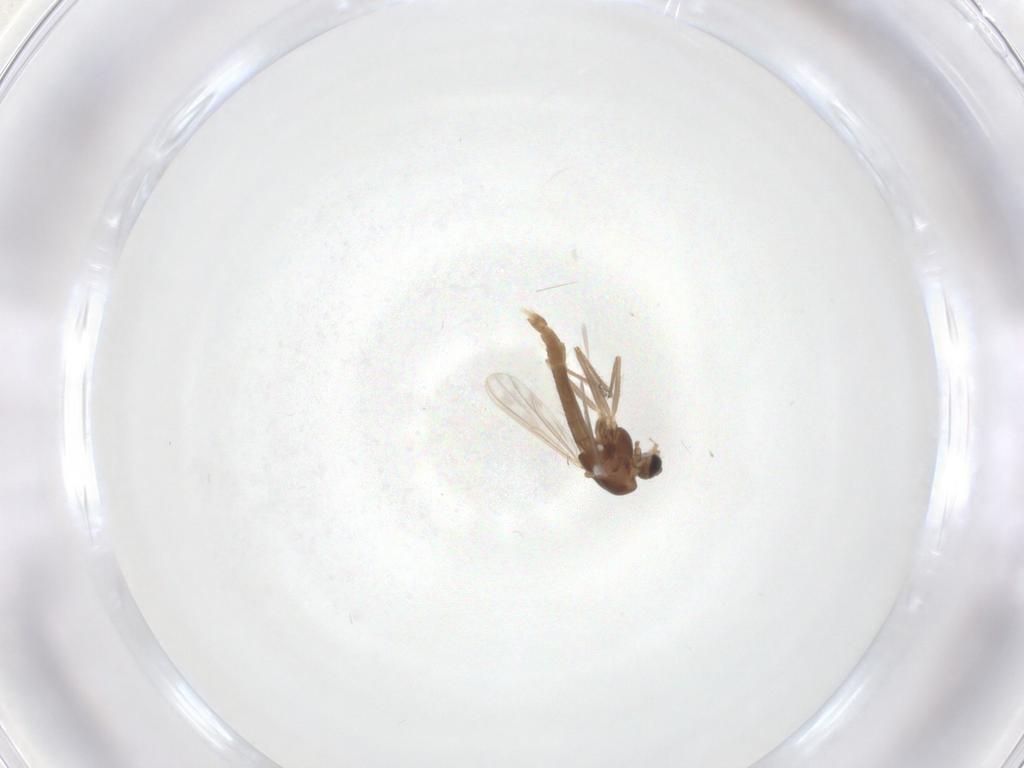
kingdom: Animalia
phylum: Arthropoda
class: Insecta
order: Diptera
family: Chironomidae
